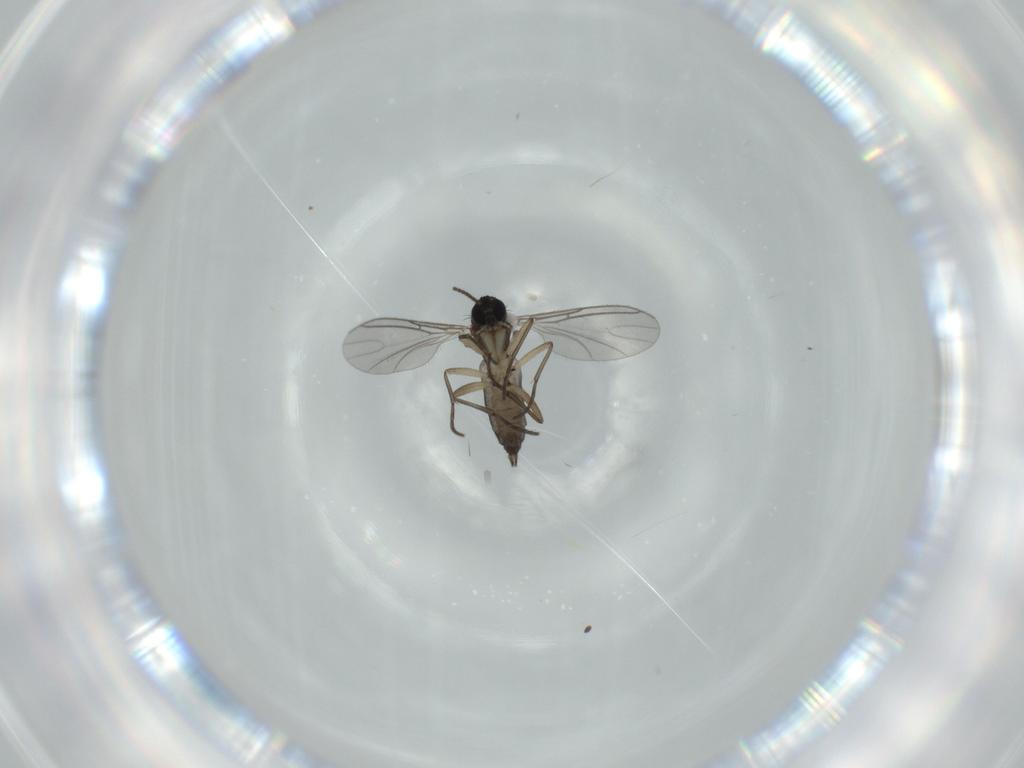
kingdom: Animalia
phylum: Arthropoda
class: Insecta
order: Diptera
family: Sciaridae
